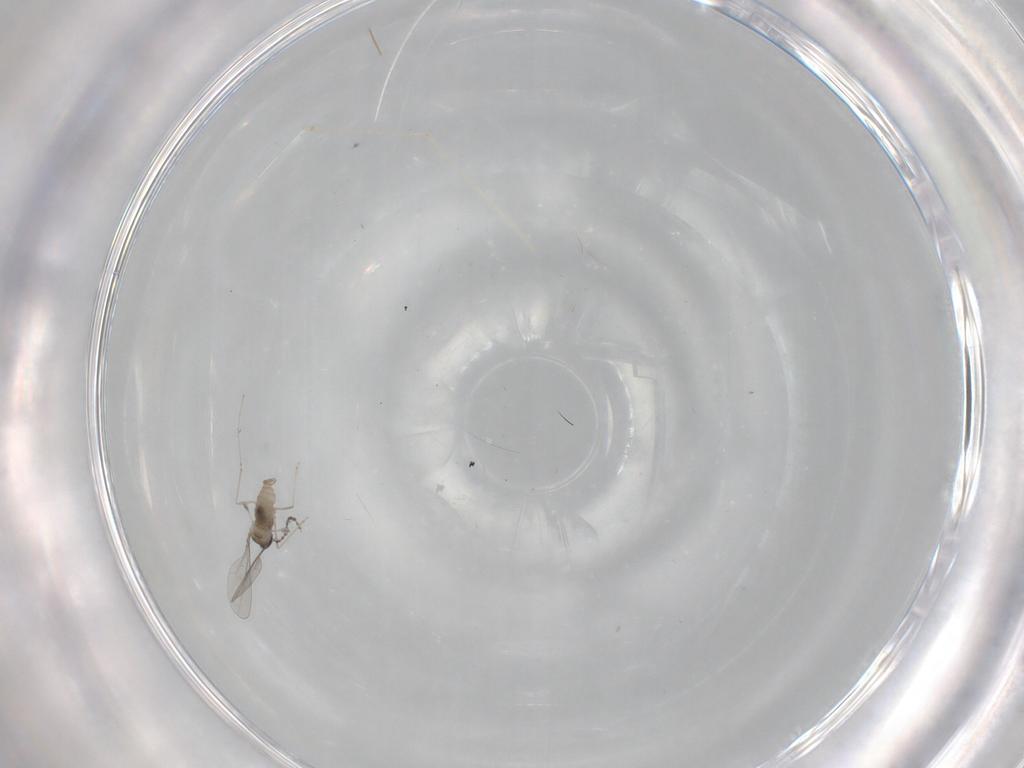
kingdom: Animalia
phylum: Arthropoda
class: Insecta
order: Diptera
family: Cecidomyiidae
